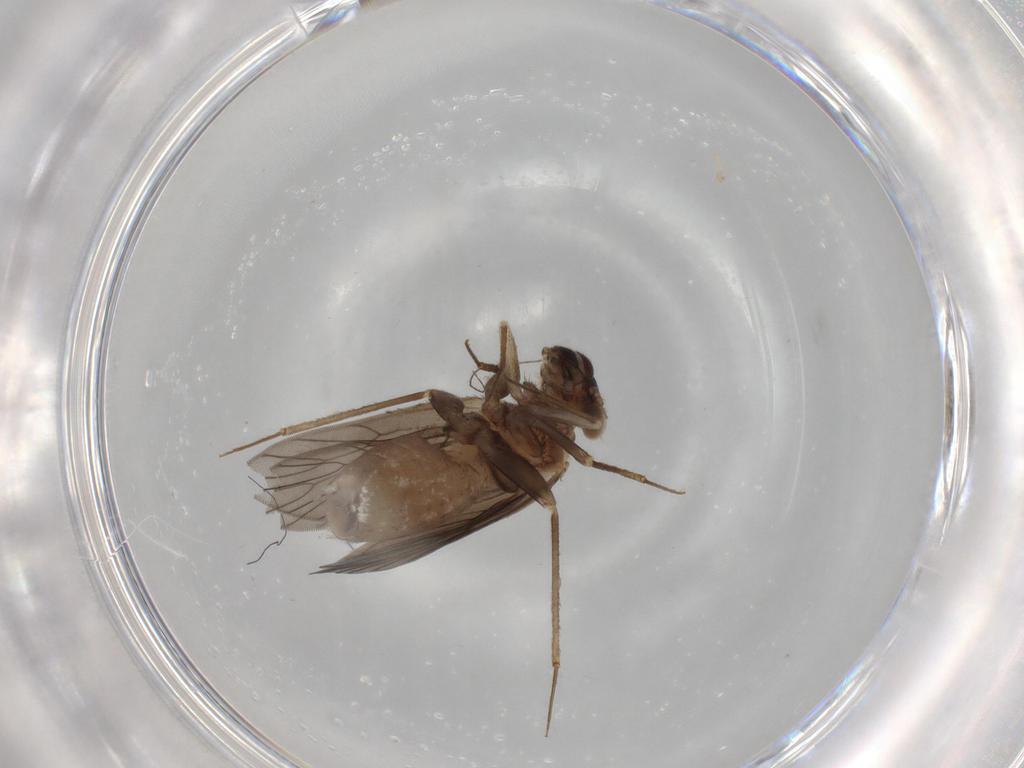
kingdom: Animalia
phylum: Arthropoda
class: Insecta
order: Psocodea
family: Lepidopsocidae
